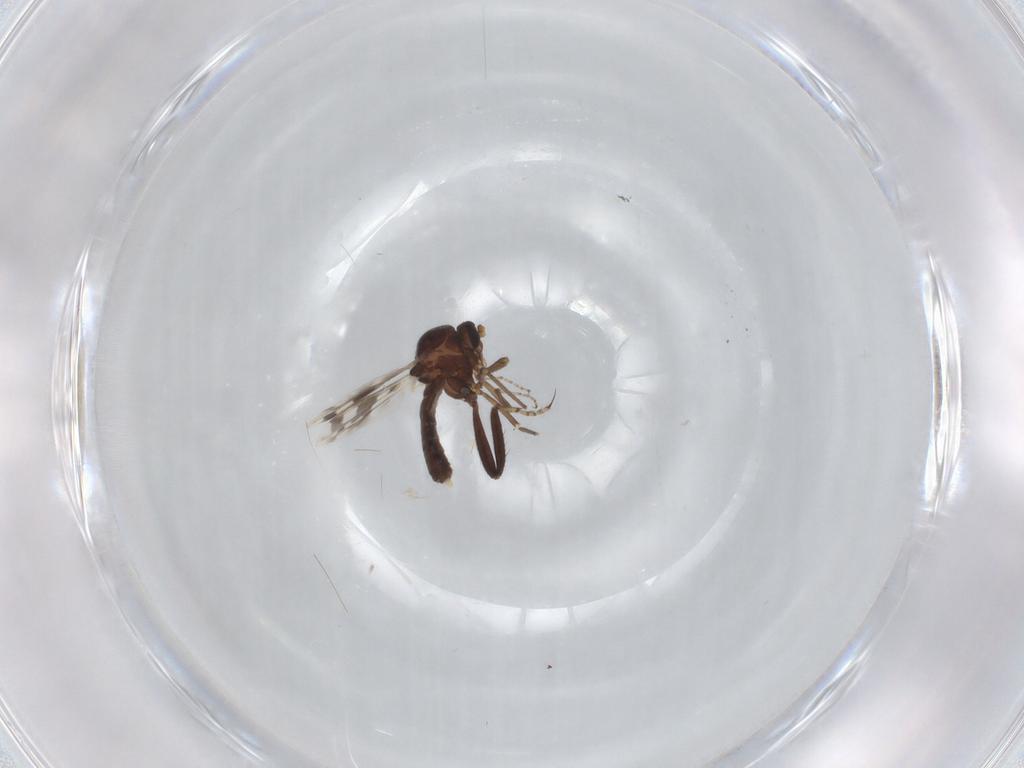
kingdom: Animalia
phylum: Arthropoda
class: Insecta
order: Diptera
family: Ceratopogonidae
